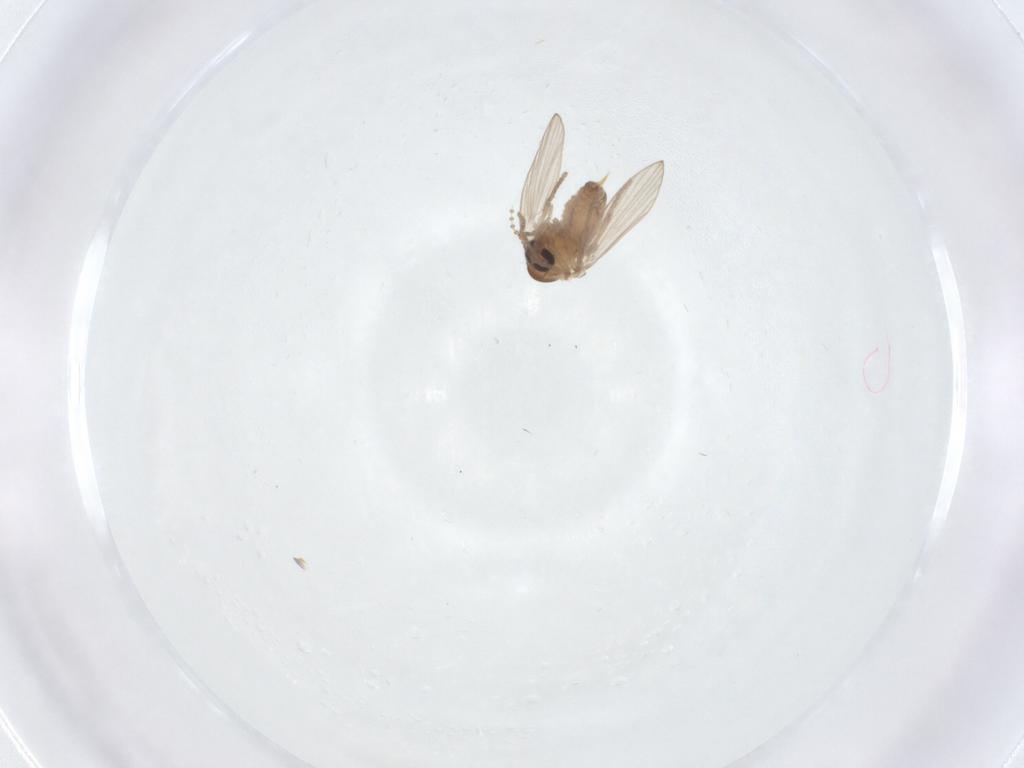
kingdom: Animalia
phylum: Arthropoda
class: Insecta
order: Diptera
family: Psychodidae
